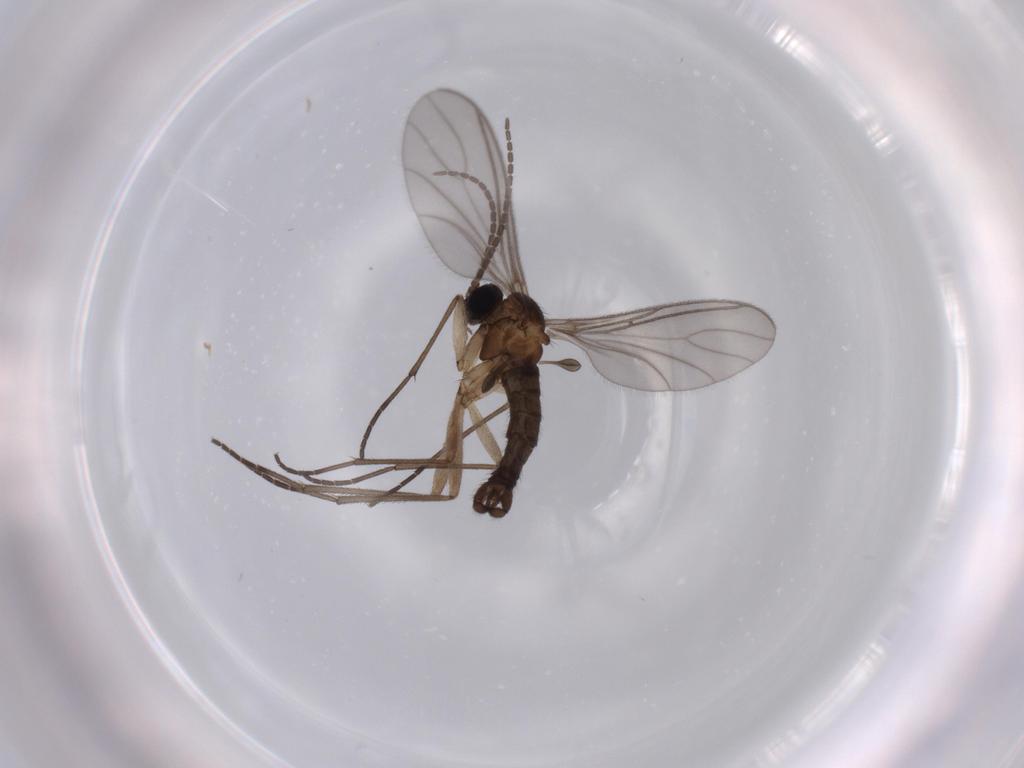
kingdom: Animalia
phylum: Arthropoda
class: Insecta
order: Diptera
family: Sciaridae
